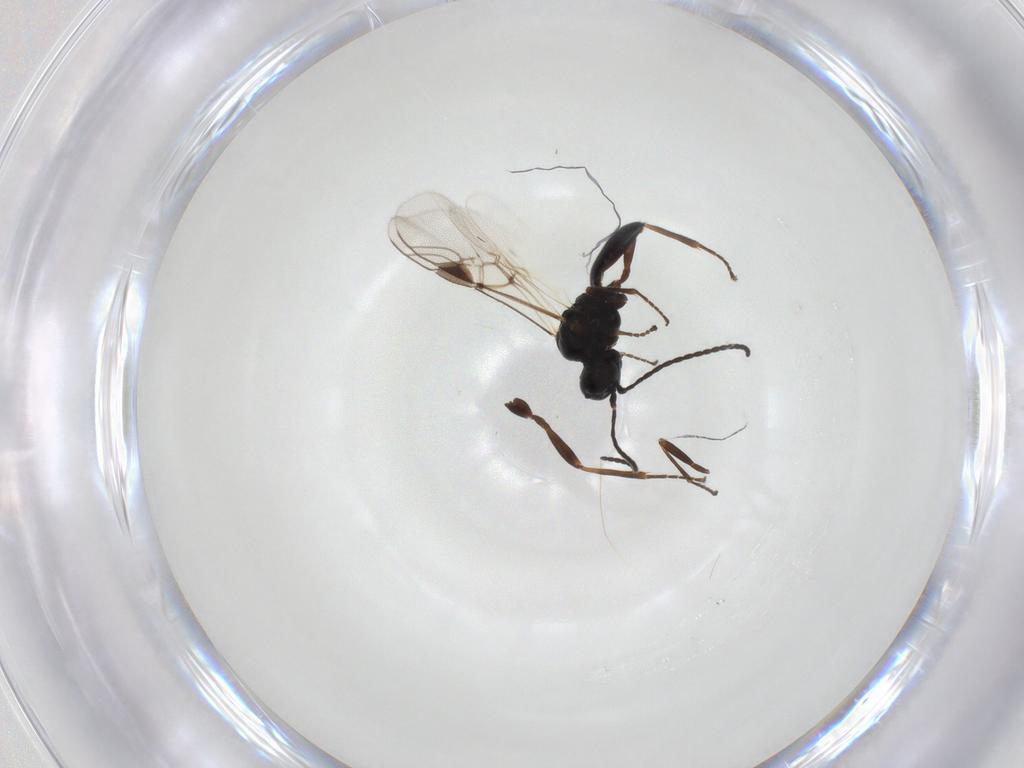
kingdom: Animalia
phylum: Arthropoda
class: Insecta
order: Hymenoptera
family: Braconidae
